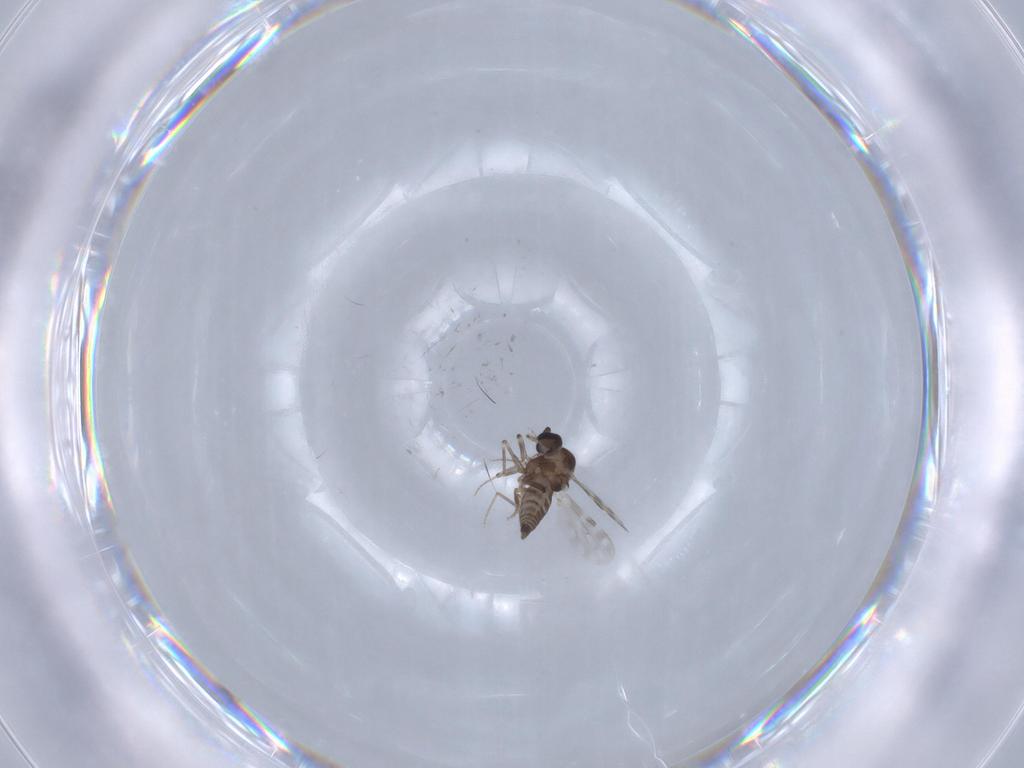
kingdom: Animalia
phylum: Arthropoda
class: Insecta
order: Diptera
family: Ceratopogonidae
